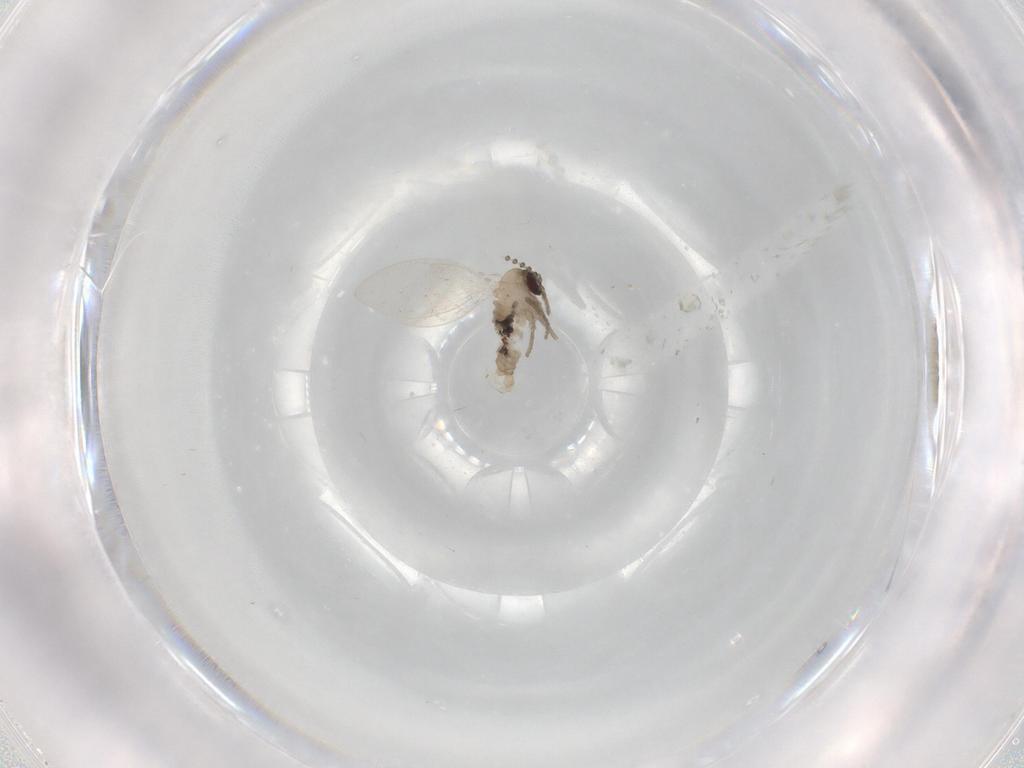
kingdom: Animalia
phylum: Arthropoda
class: Insecta
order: Diptera
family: Psychodidae
